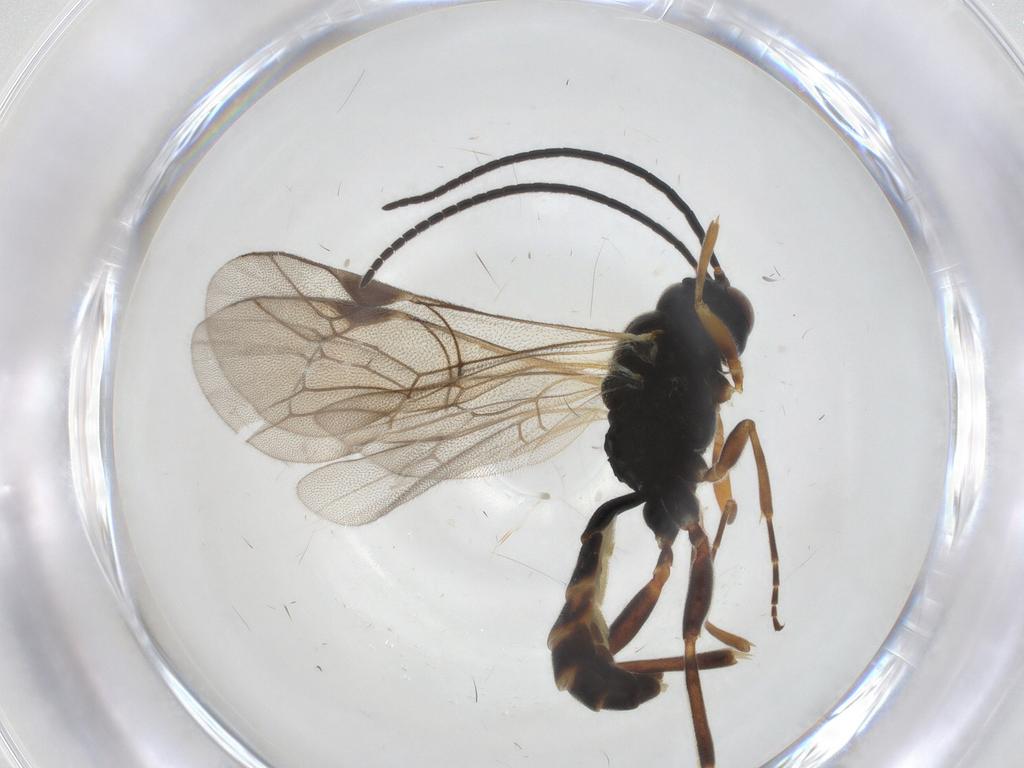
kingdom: Animalia
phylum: Arthropoda
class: Insecta
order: Hymenoptera
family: Ichneumonidae
